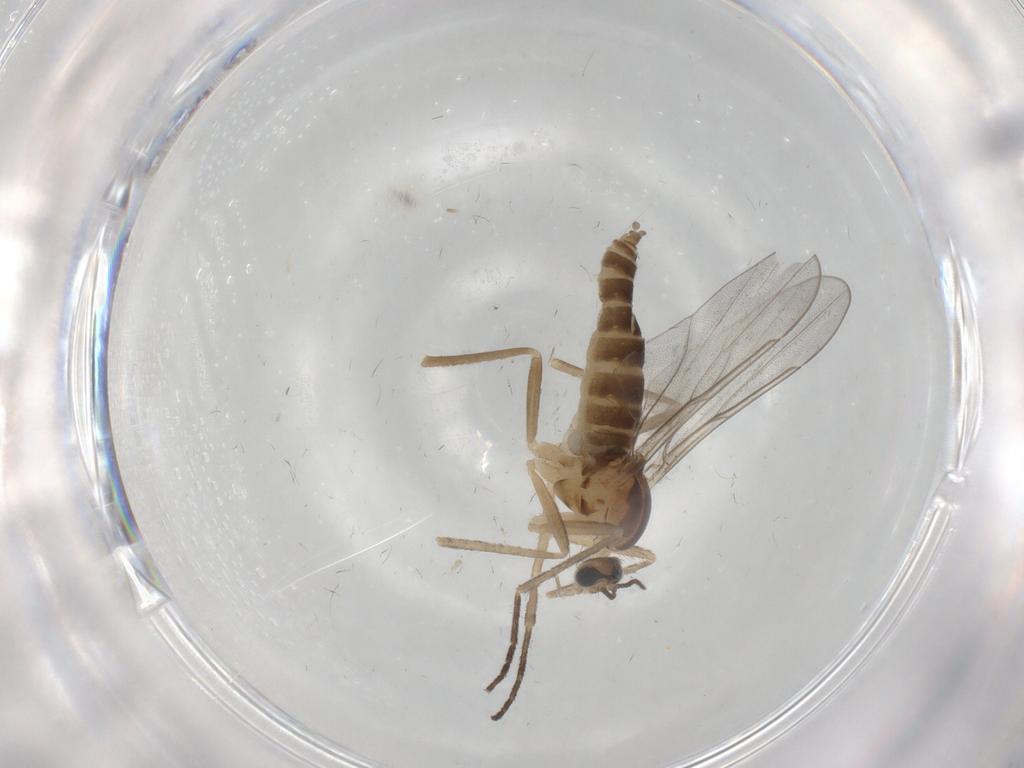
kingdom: Animalia
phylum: Arthropoda
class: Insecta
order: Diptera
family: Cecidomyiidae
